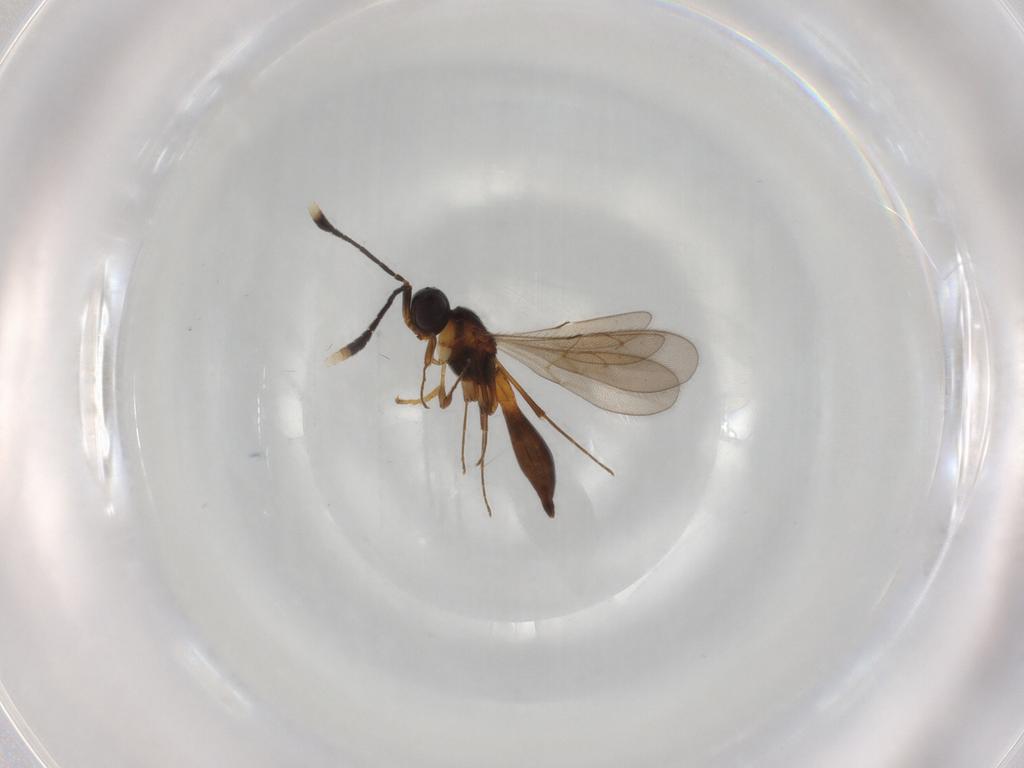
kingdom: Animalia
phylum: Arthropoda
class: Insecta
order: Hymenoptera
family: Scelionidae
